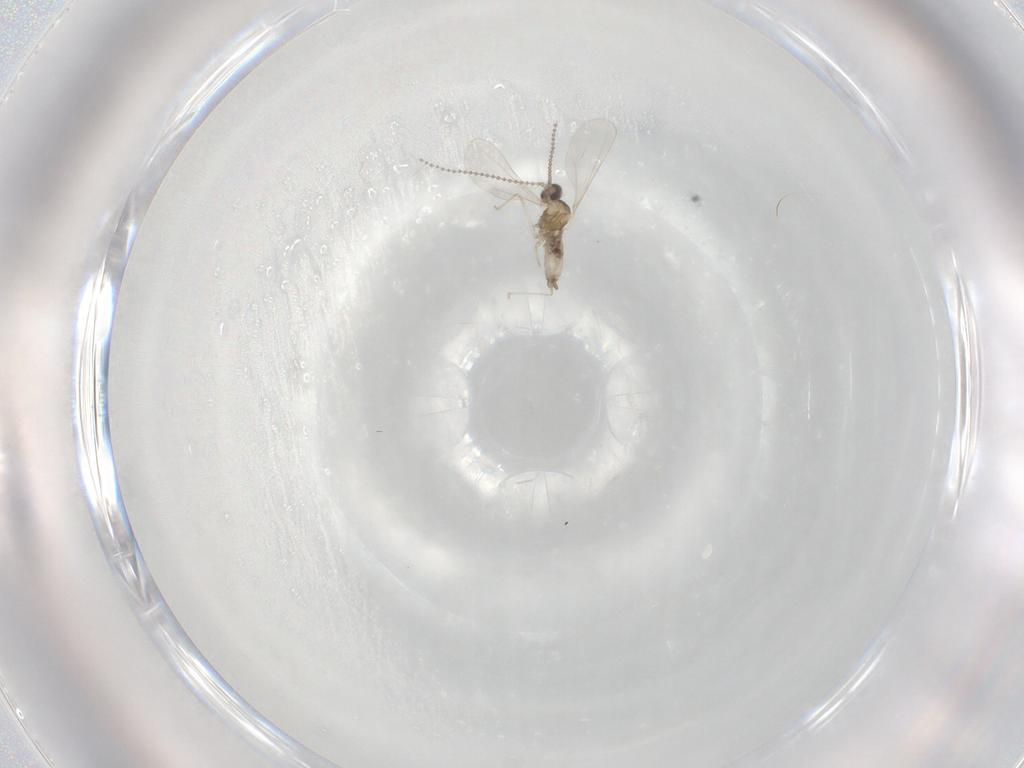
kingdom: Animalia
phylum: Arthropoda
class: Insecta
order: Diptera
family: Cecidomyiidae
